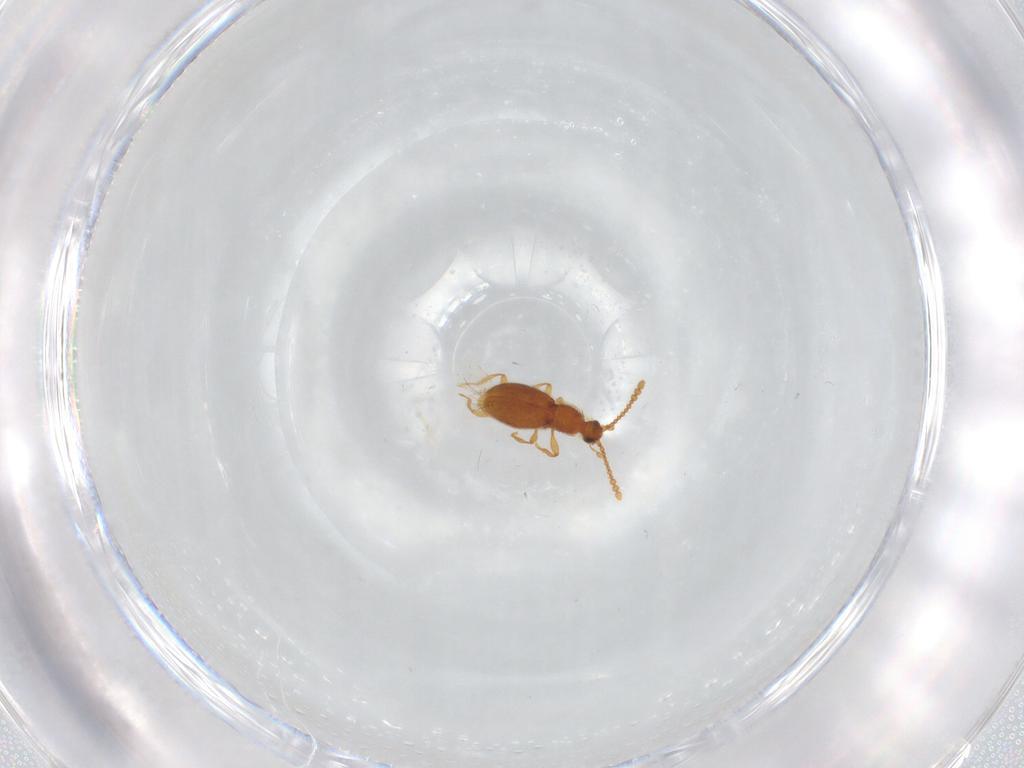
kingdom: Animalia
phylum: Arthropoda
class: Insecta
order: Coleoptera
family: Staphylinidae
